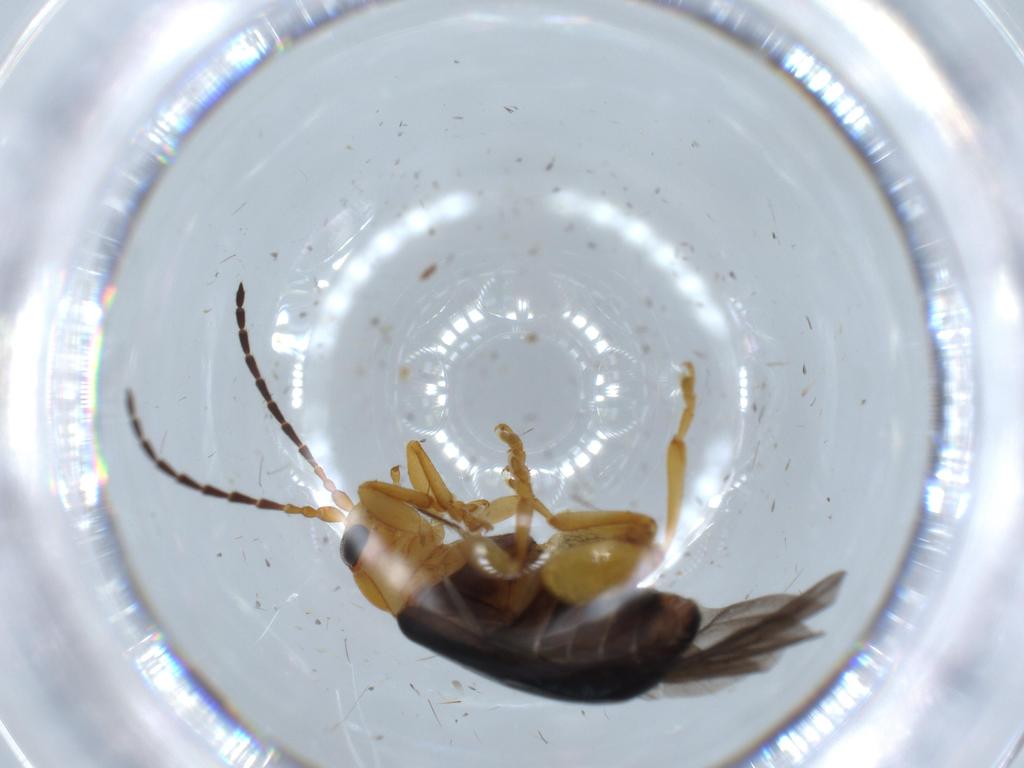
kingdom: Animalia
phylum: Arthropoda
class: Insecta
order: Coleoptera
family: Chrysomelidae
